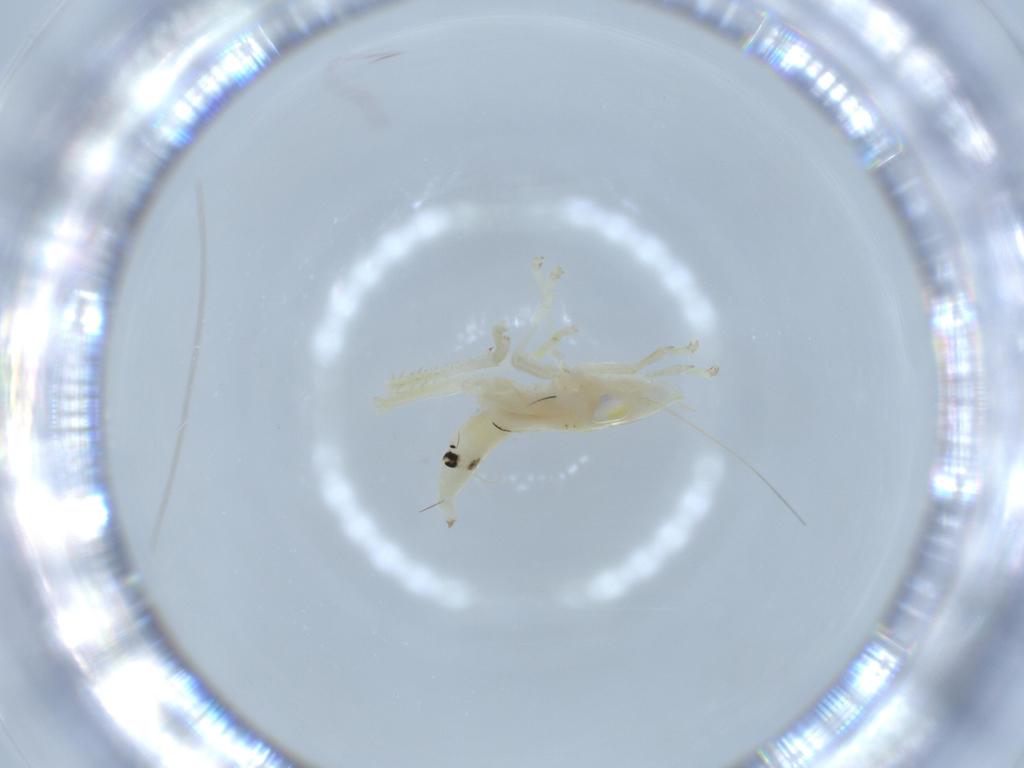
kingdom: Animalia
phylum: Arthropoda
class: Insecta
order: Hemiptera
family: Cicadellidae
